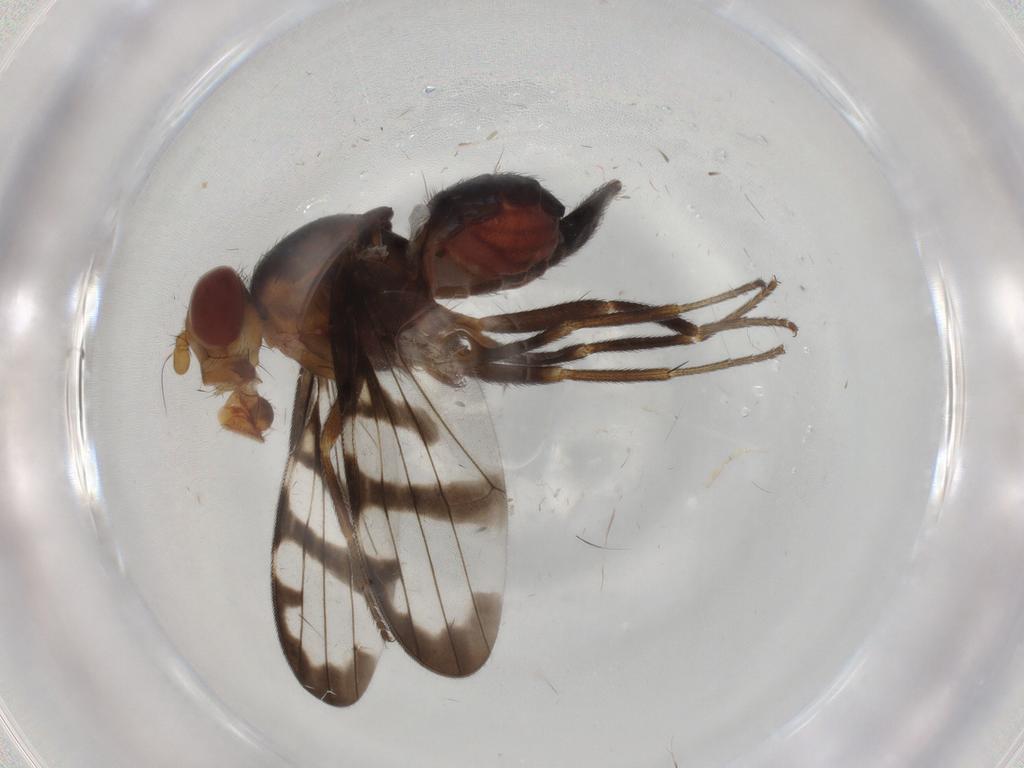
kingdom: Animalia
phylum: Arthropoda
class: Insecta
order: Diptera
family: Ulidiidae
